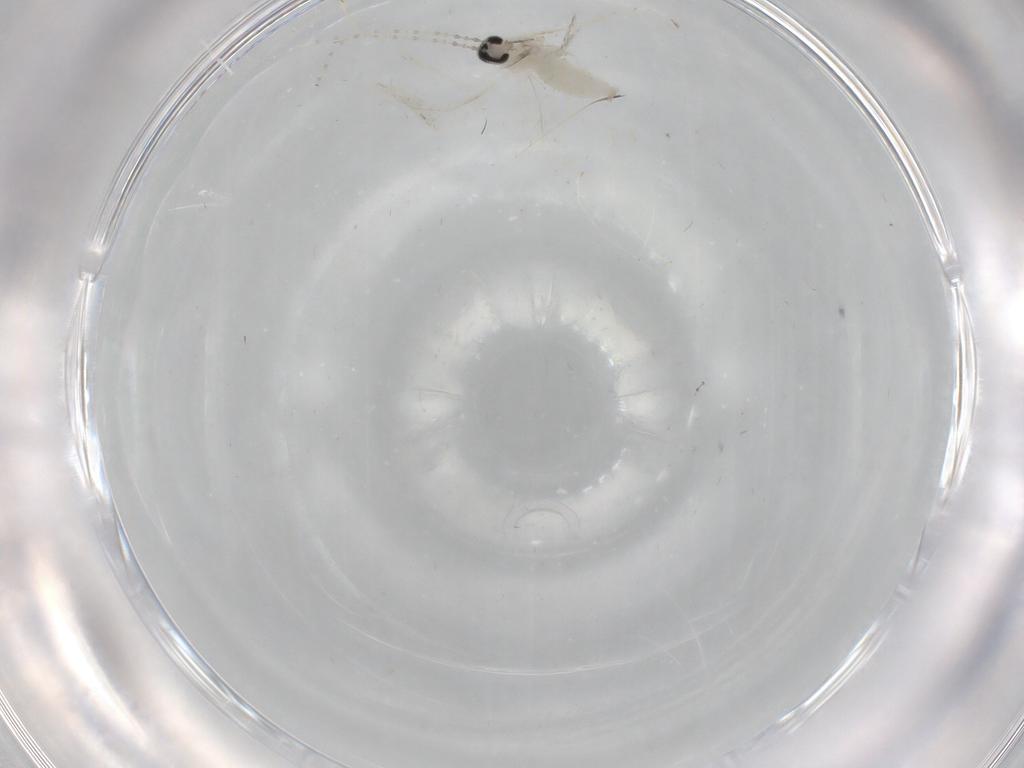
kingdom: Animalia
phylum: Arthropoda
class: Insecta
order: Diptera
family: Cecidomyiidae
